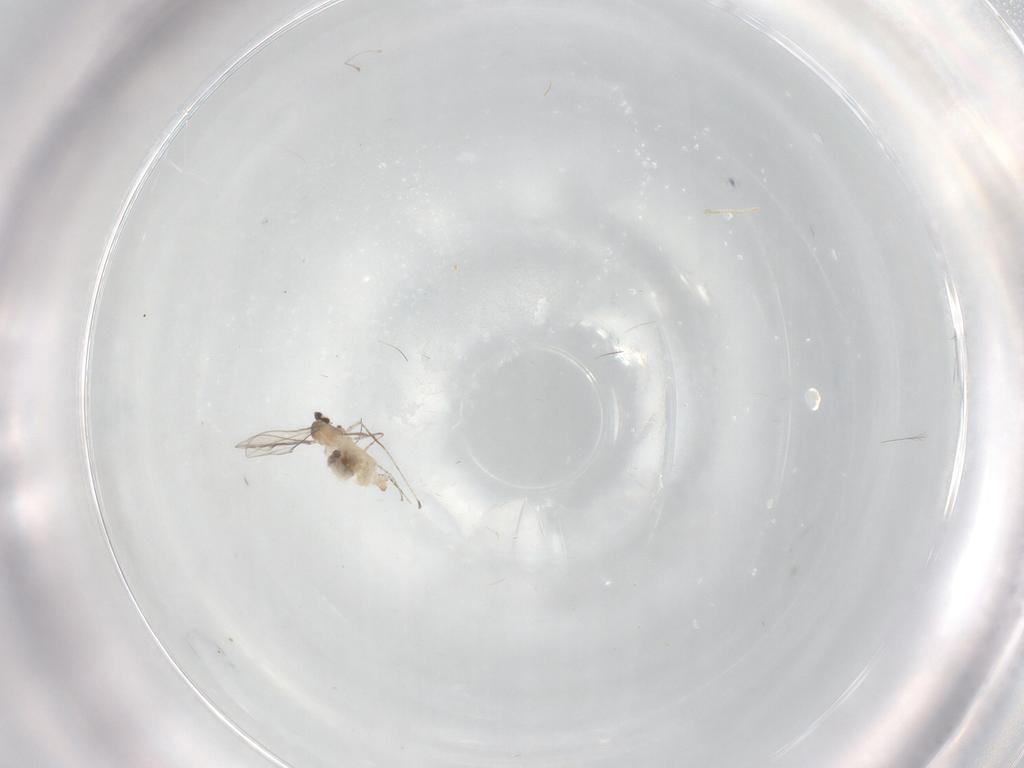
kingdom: Animalia
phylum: Arthropoda
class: Insecta
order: Diptera
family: Cecidomyiidae
